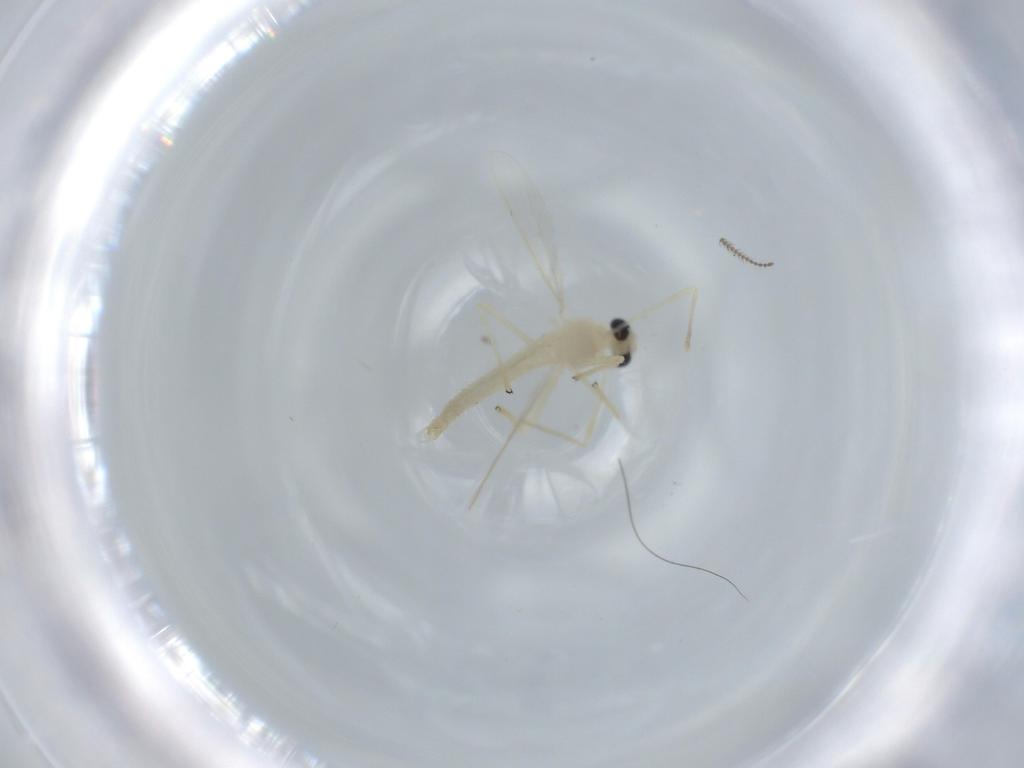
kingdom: Animalia
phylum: Arthropoda
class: Insecta
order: Diptera
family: Chironomidae
